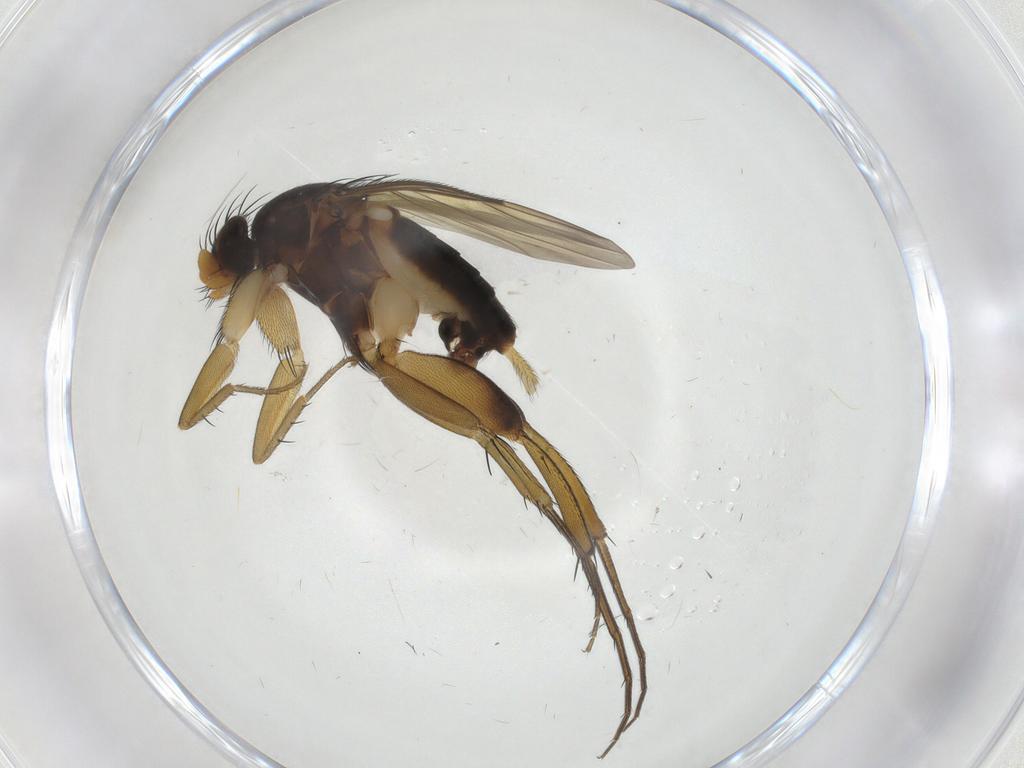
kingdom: Animalia
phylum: Arthropoda
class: Insecta
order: Diptera
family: Phoridae
